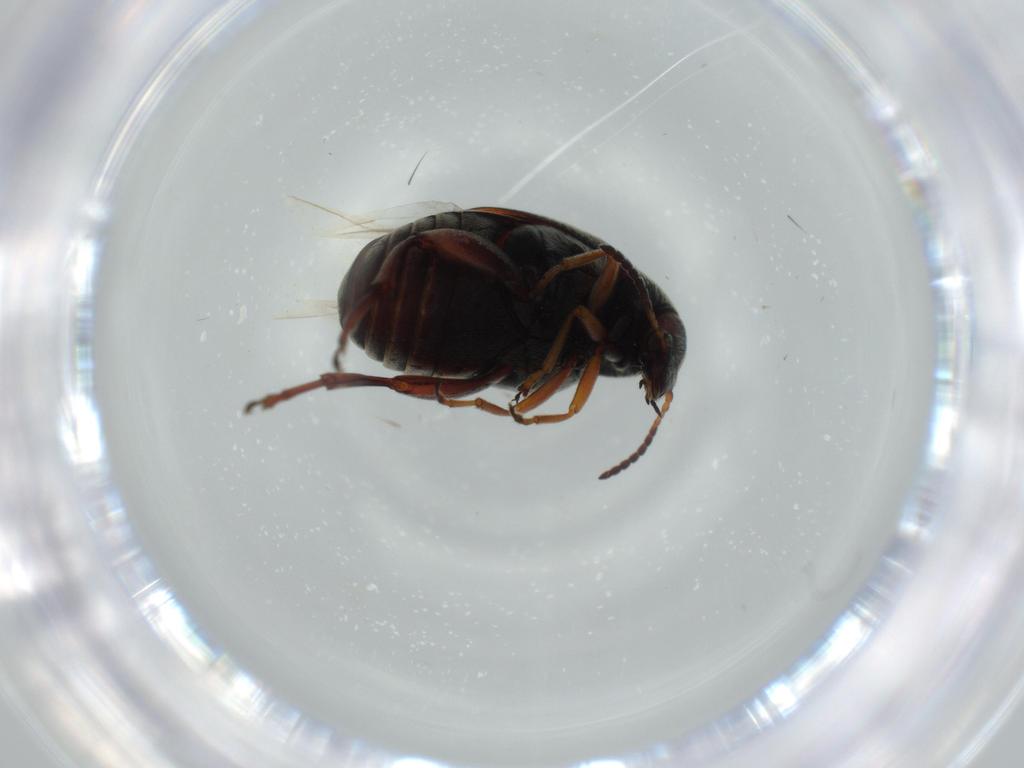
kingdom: Animalia
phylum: Arthropoda
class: Insecta
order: Coleoptera
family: Chrysomelidae
